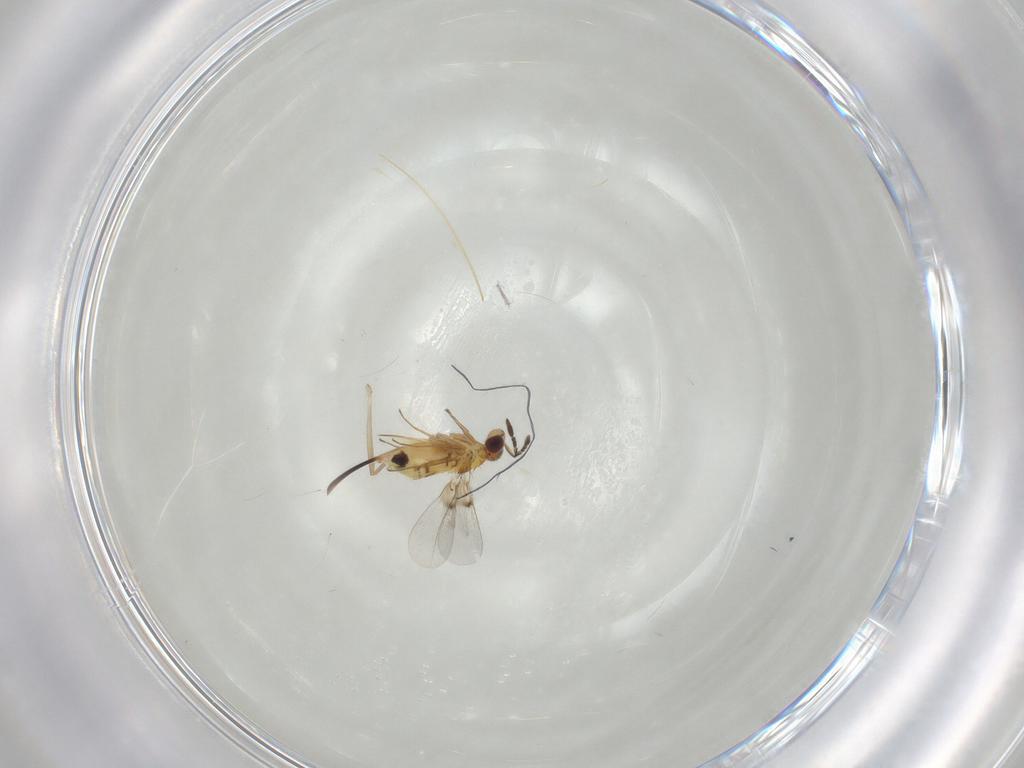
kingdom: Animalia
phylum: Arthropoda
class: Insecta
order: Hymenoptera
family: Trichogrammatidae
